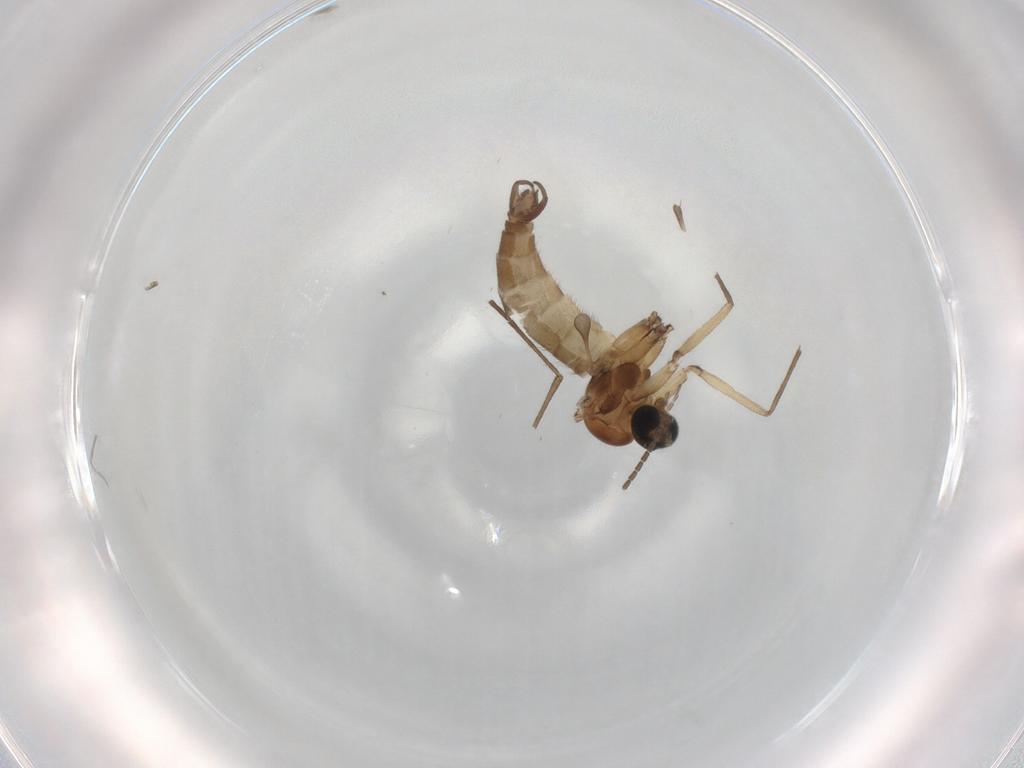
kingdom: Animalia
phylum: Arthropoda
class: Insecta
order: Diptera
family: Sciaridae
